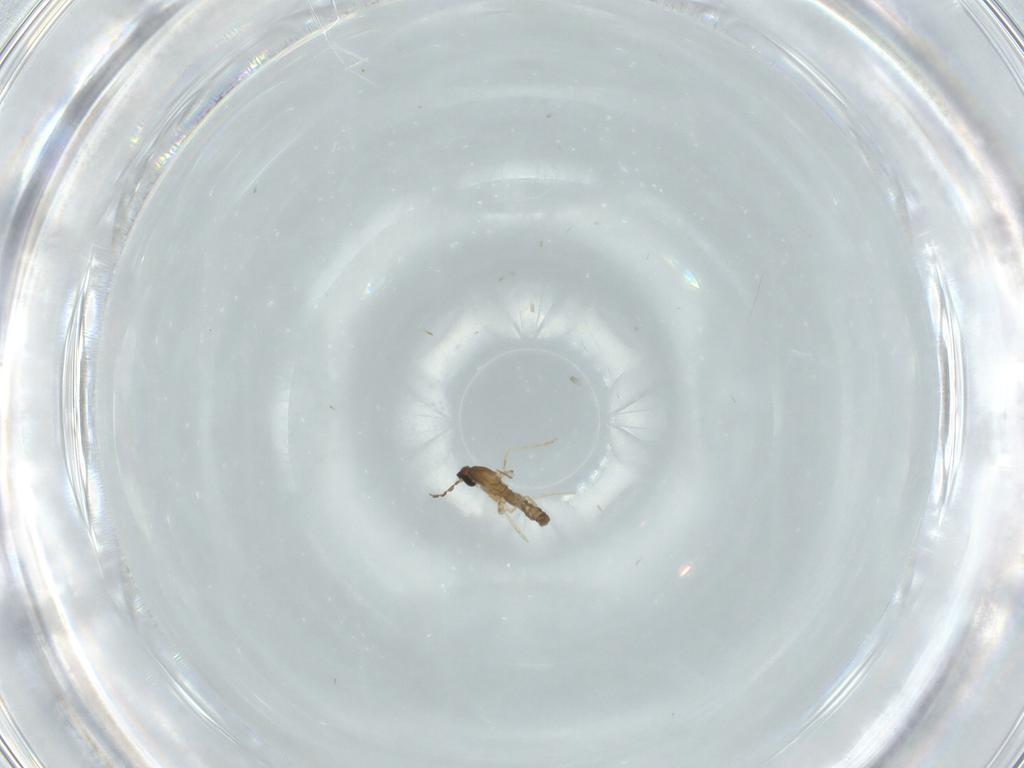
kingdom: Animalia
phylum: Arthropoda
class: Insecta
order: Diptera
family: Cecidomyiidae
